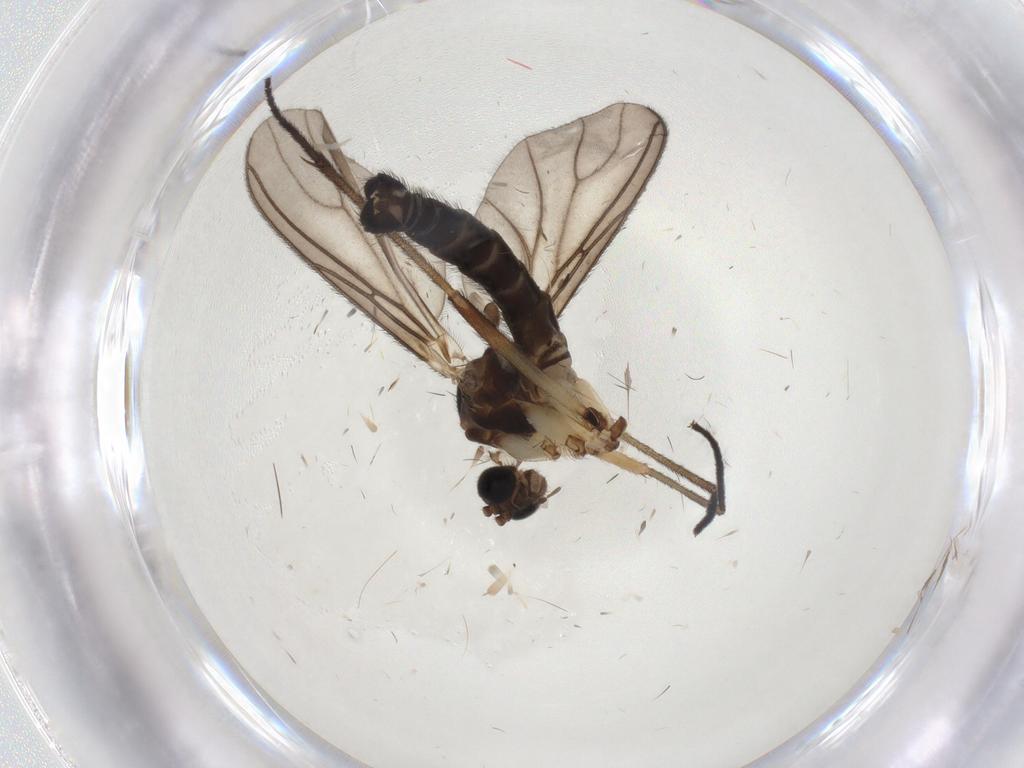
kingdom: Animalia
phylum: Arthropoda
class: Insecta
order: Diptera
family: Sciaridae
